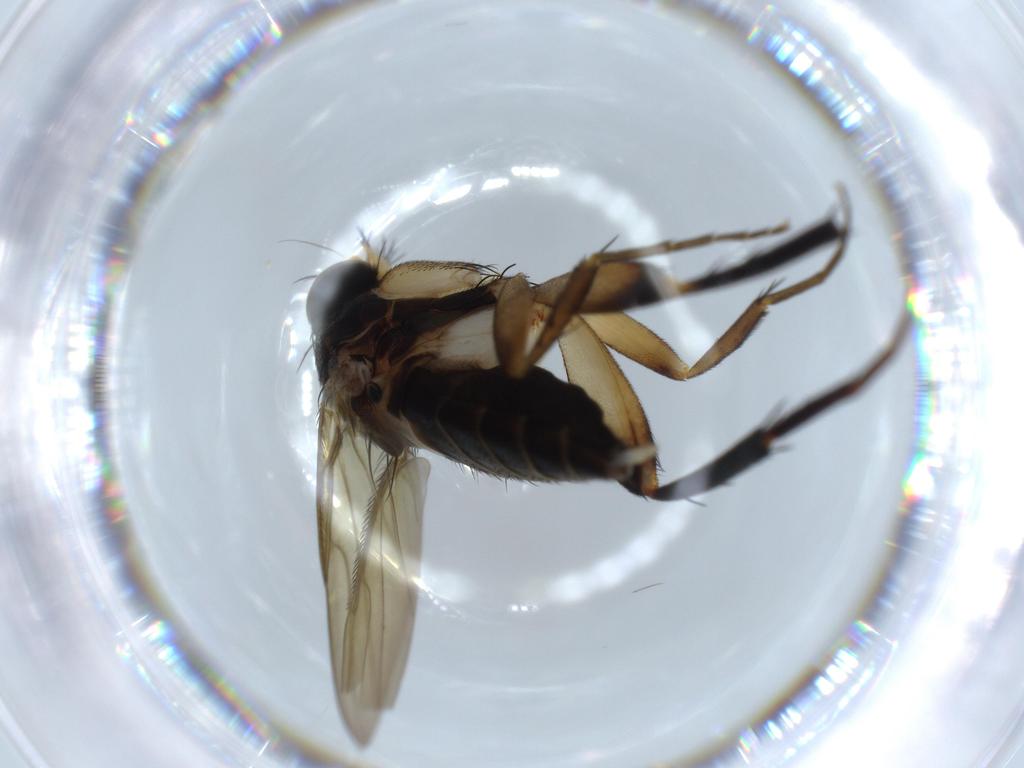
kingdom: Animalia
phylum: Arthropoda
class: Insecta
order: Diptera
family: Phoridae
